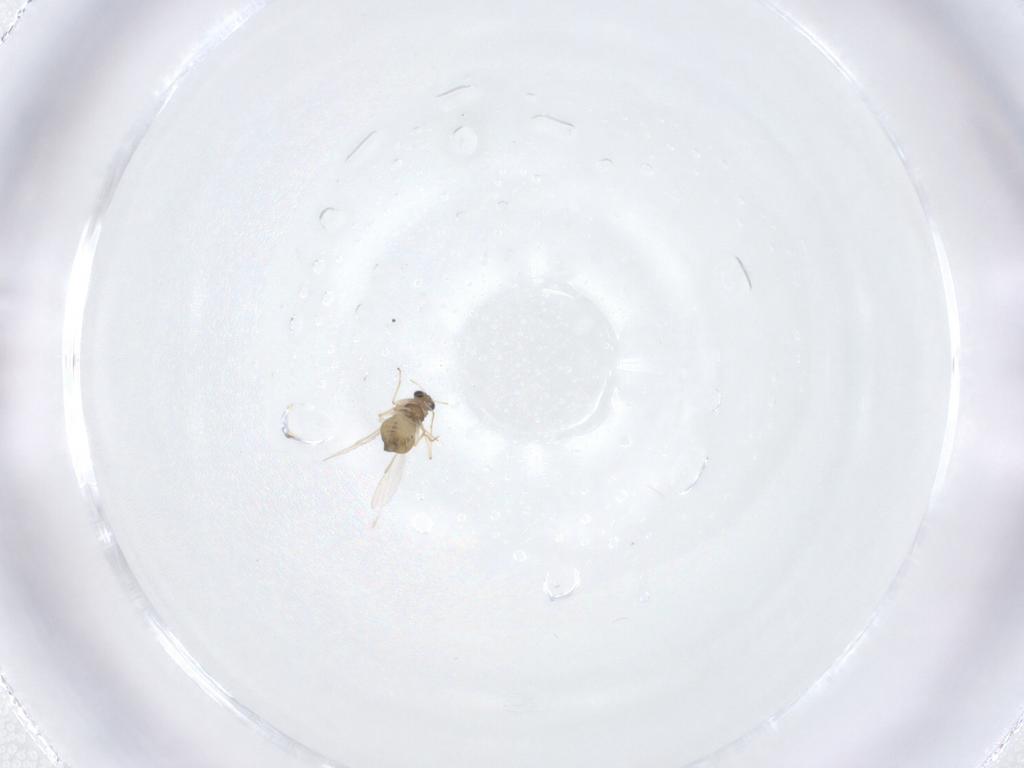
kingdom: Animalia
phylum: Arthropoda
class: Insecta
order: Diptera
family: Chironomidae
